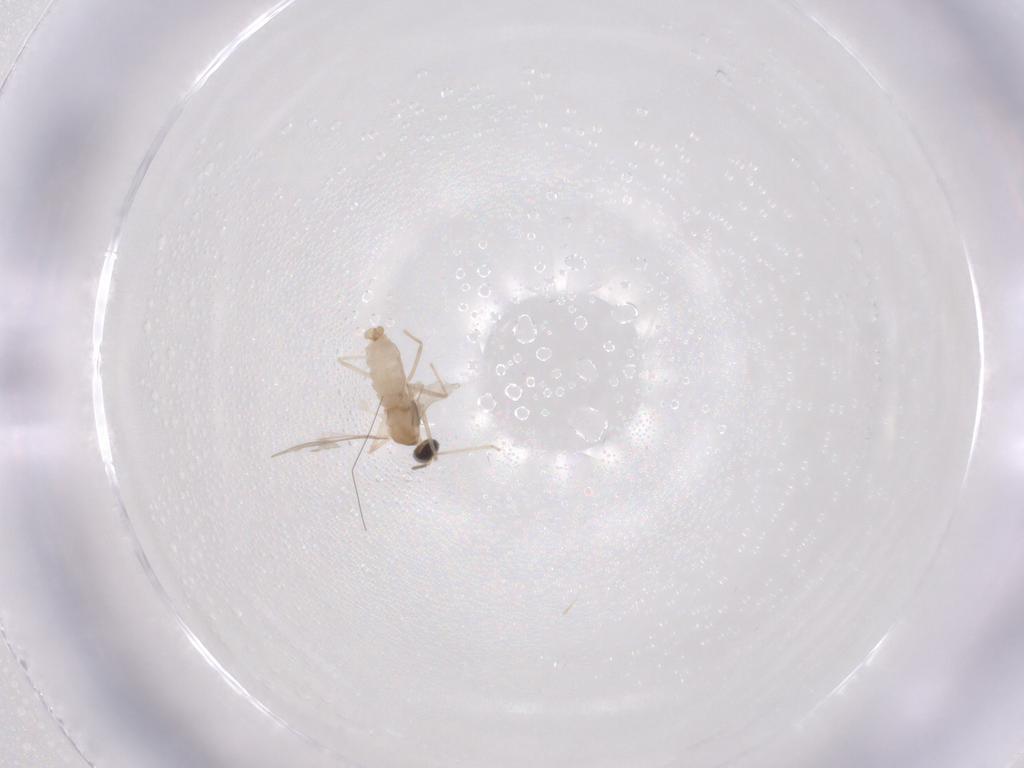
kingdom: Animalia
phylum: Arthropoda
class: Insecta
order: Diptera
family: Cecidomyiidae
